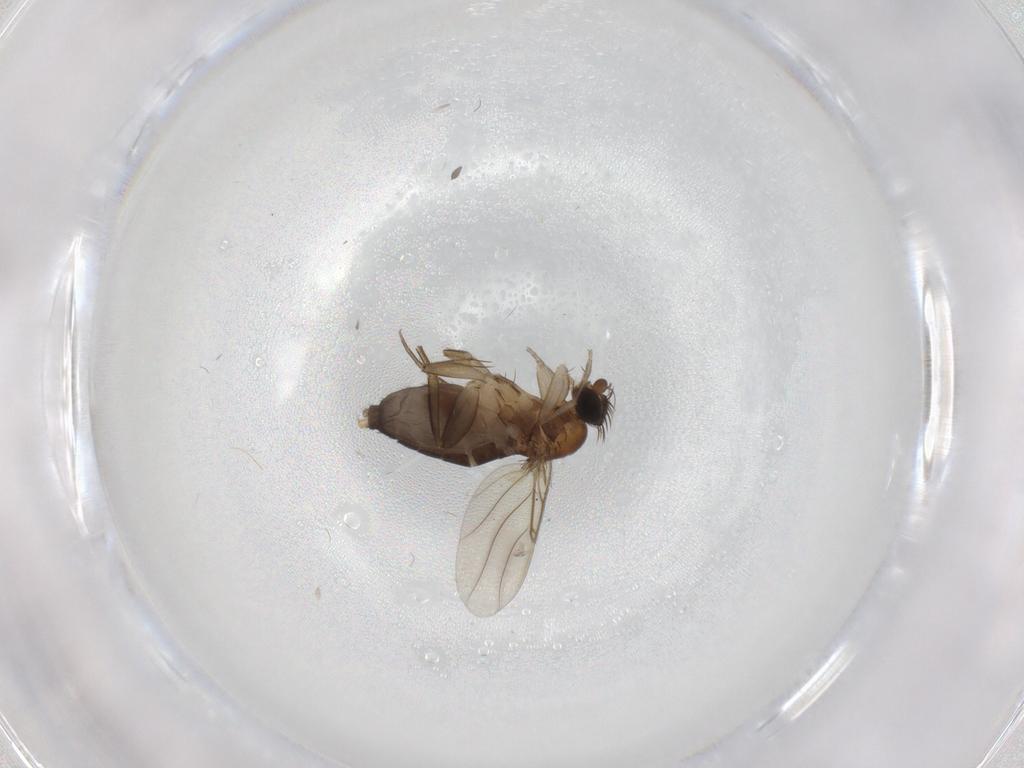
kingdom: Animalia
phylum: Arthropoda
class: Insecta
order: Diptera
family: Phoridae
